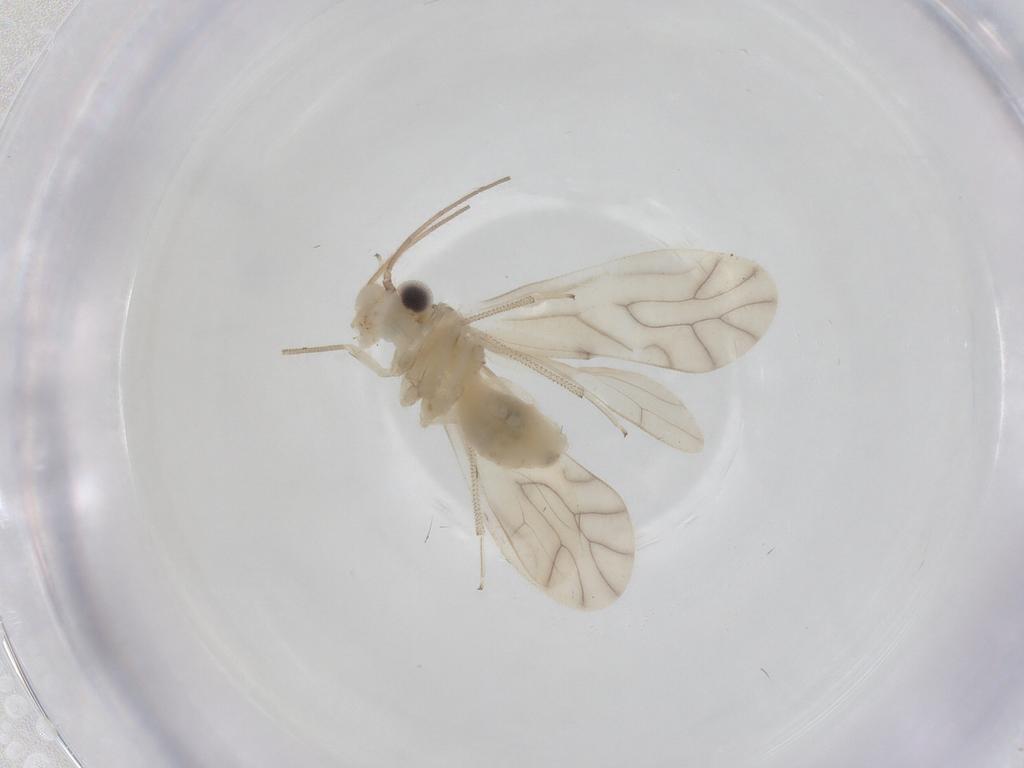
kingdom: Animalia
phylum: Arthropoda
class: Insecta
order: Psocodea
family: Caeciliusidae
